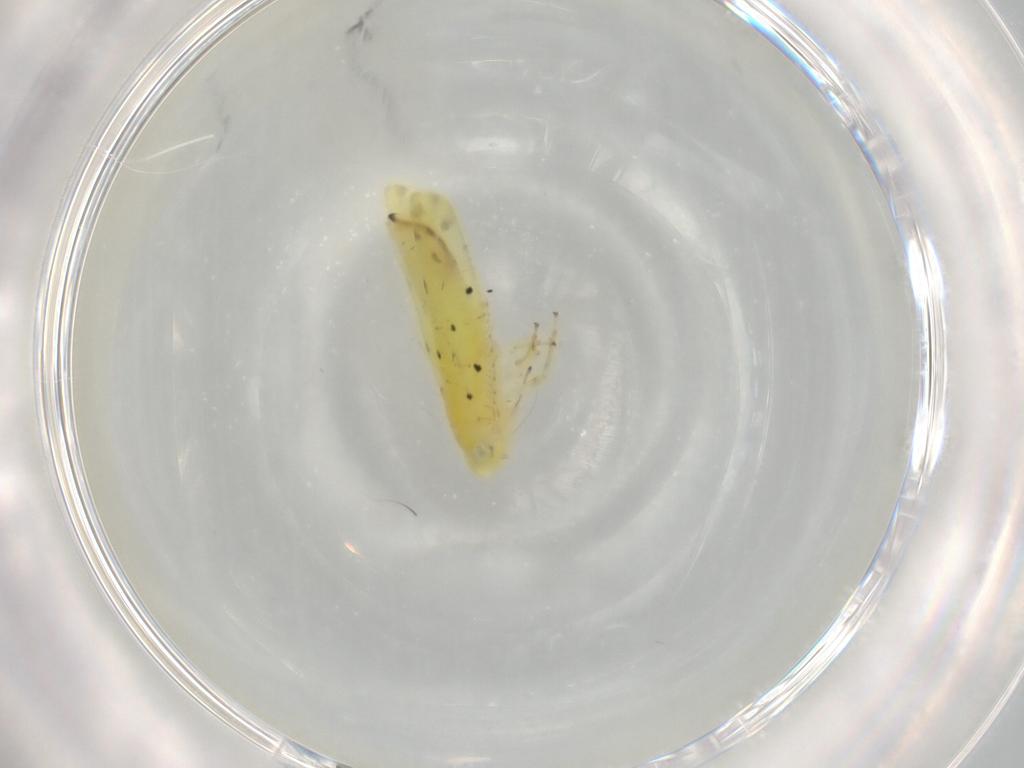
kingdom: Animalia
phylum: Arthropoda
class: Insecta
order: Hemiptera
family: Cicadellidae
